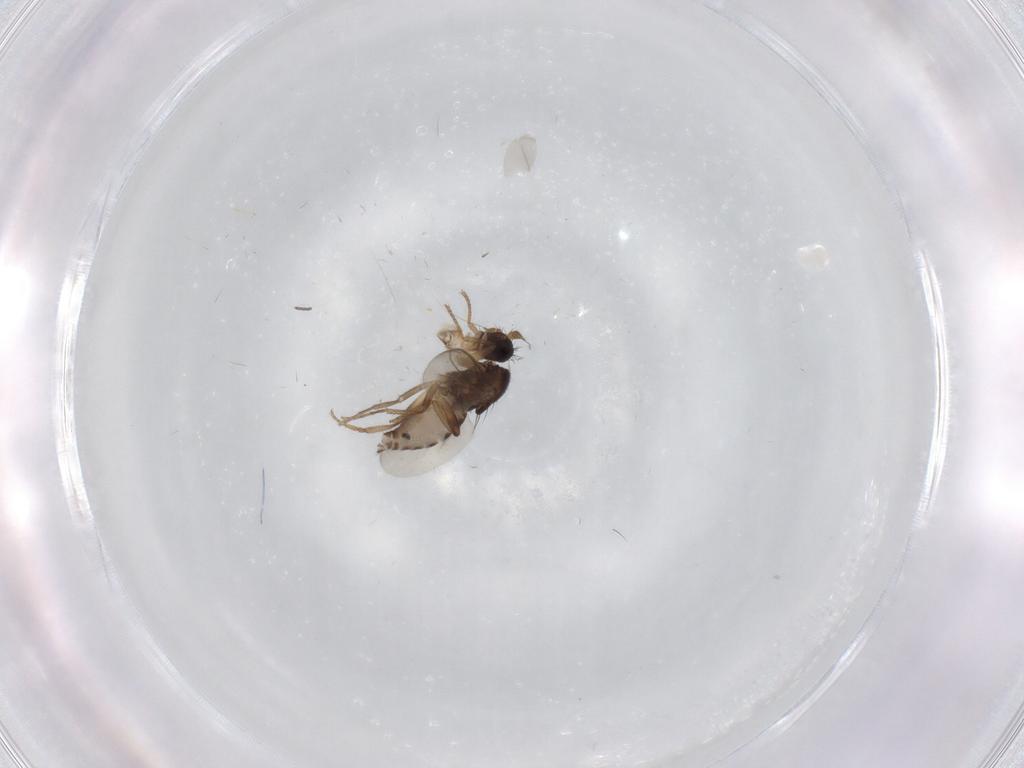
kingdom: Animalia
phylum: Arthropoda
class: Insecta
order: Diptera
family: Sphaeroceridae
